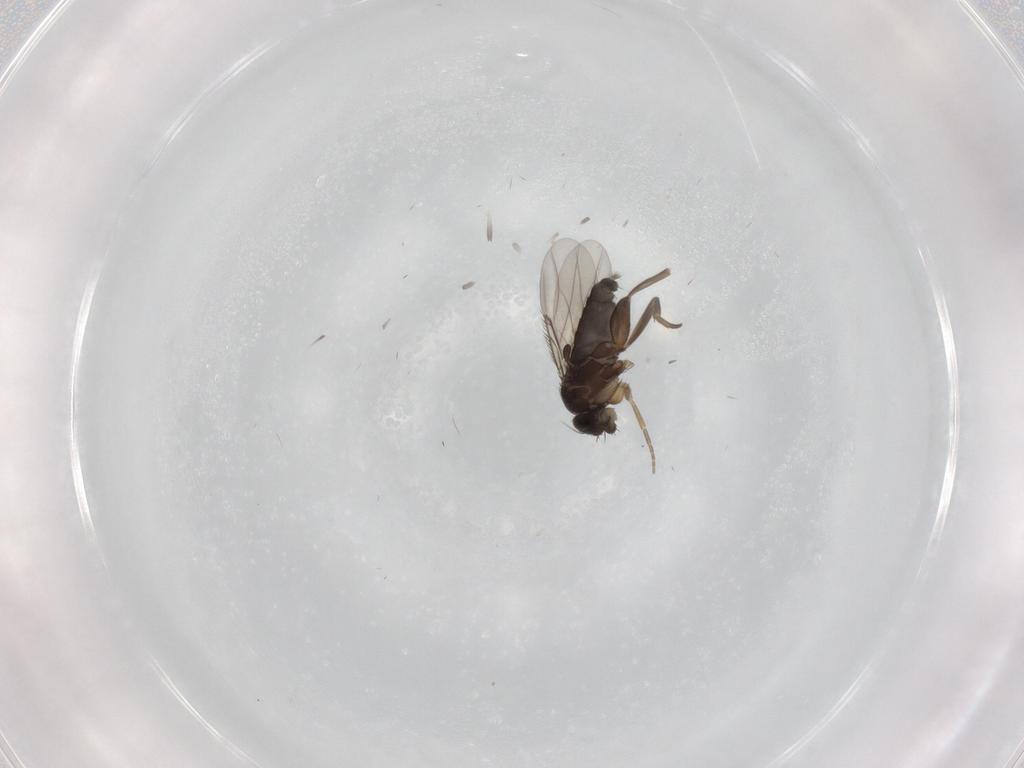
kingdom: Animalia
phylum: Arthropoda
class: Insecta
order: Diptera
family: Phoridae
